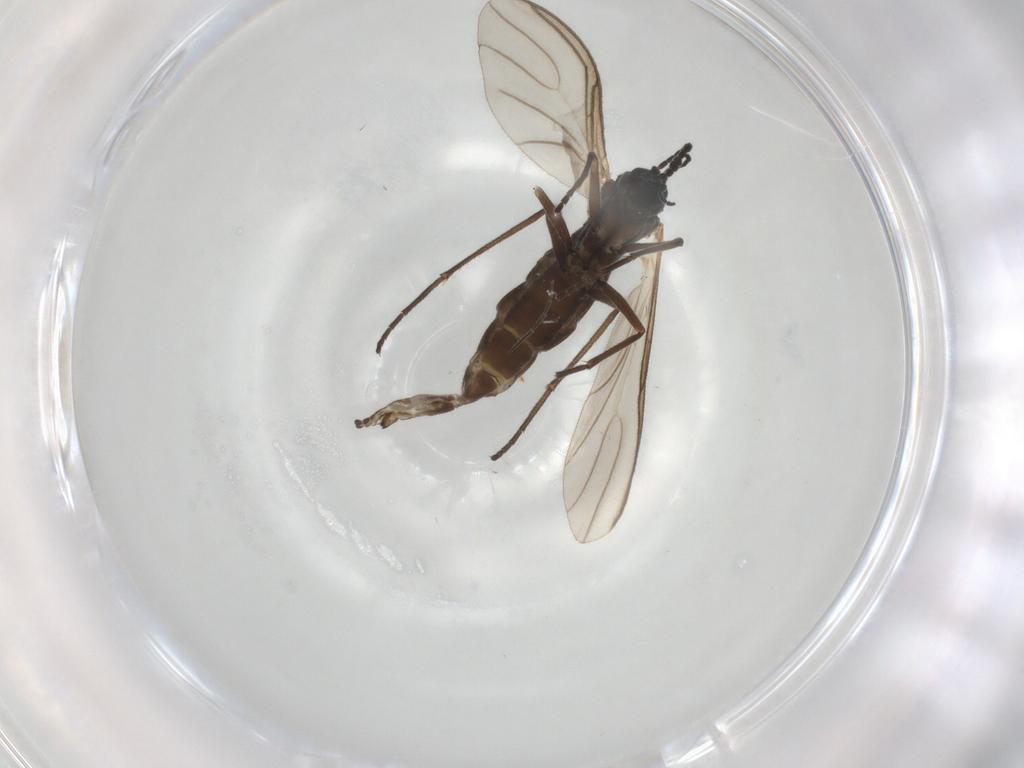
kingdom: Animalia
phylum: Arthropoda
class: Insecta
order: Diptera
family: Sciaridae
